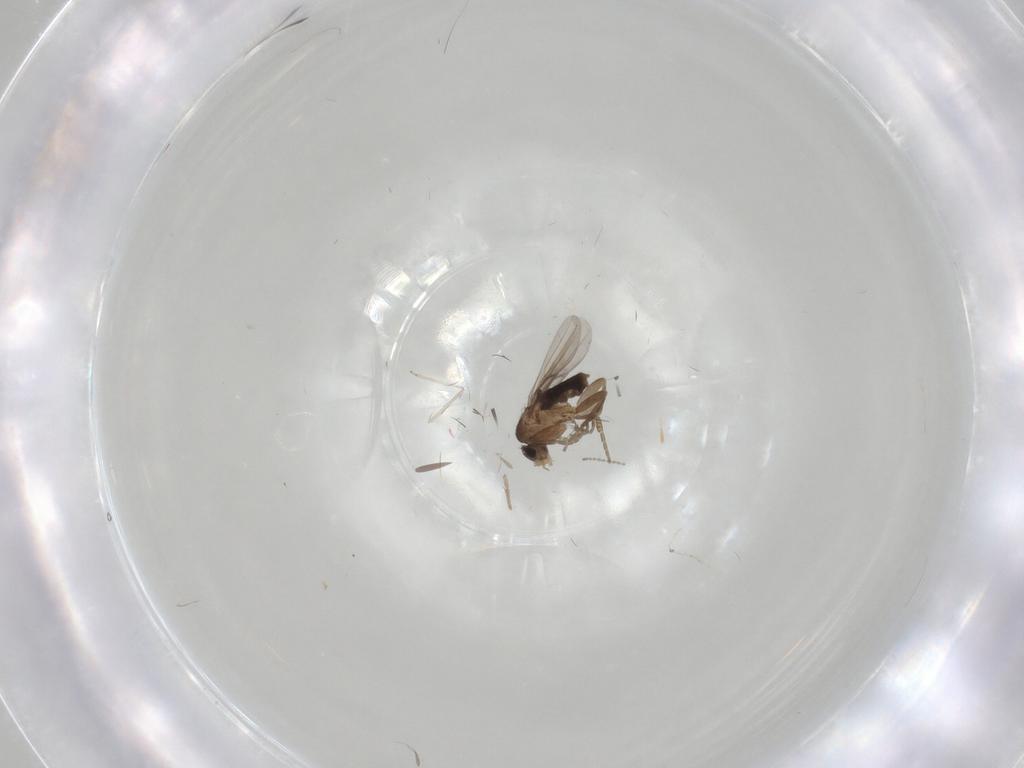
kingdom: Animalia
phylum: Arthropoda
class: Insecta
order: Diptera
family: Cecidomyiidae
